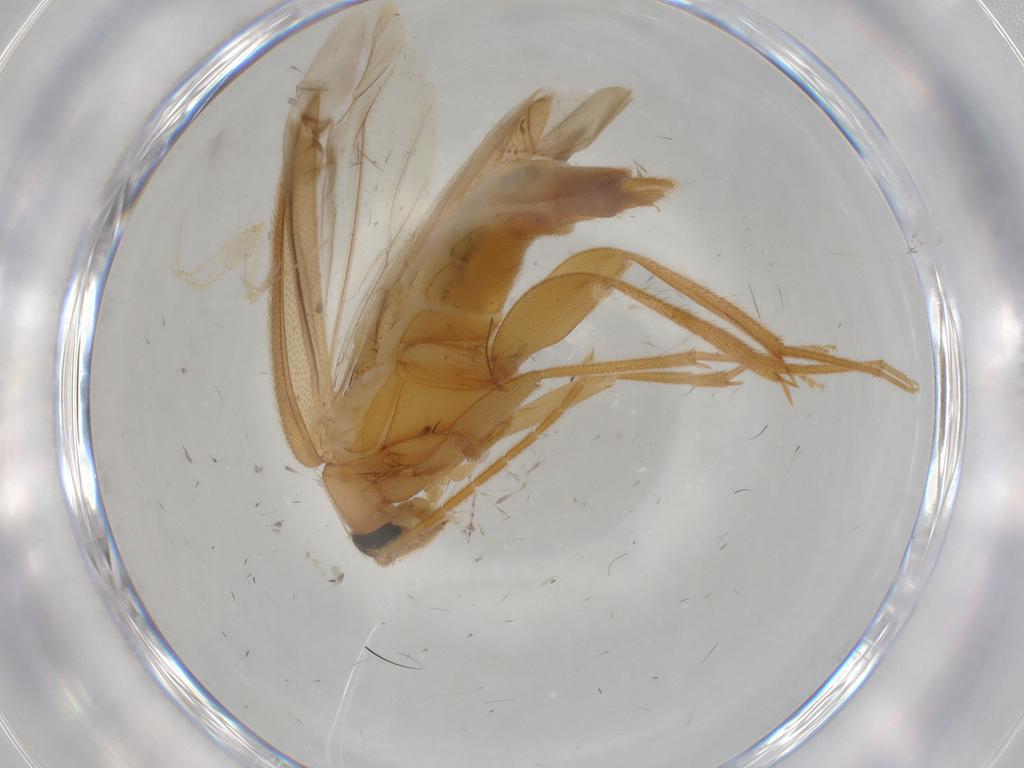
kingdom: Animalia
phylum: Arthropoda
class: Insecta
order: Coleoptera
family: Scraptiidae
